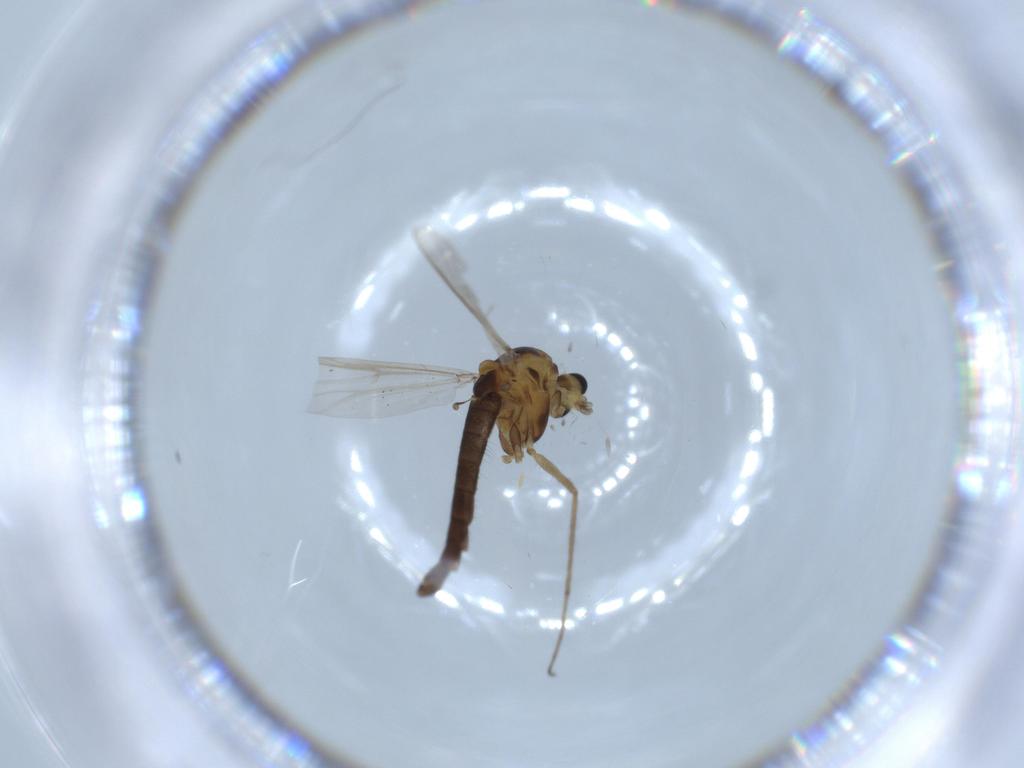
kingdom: Animalia
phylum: Arthropoda
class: Insecta
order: Diptera
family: Chironomidae
